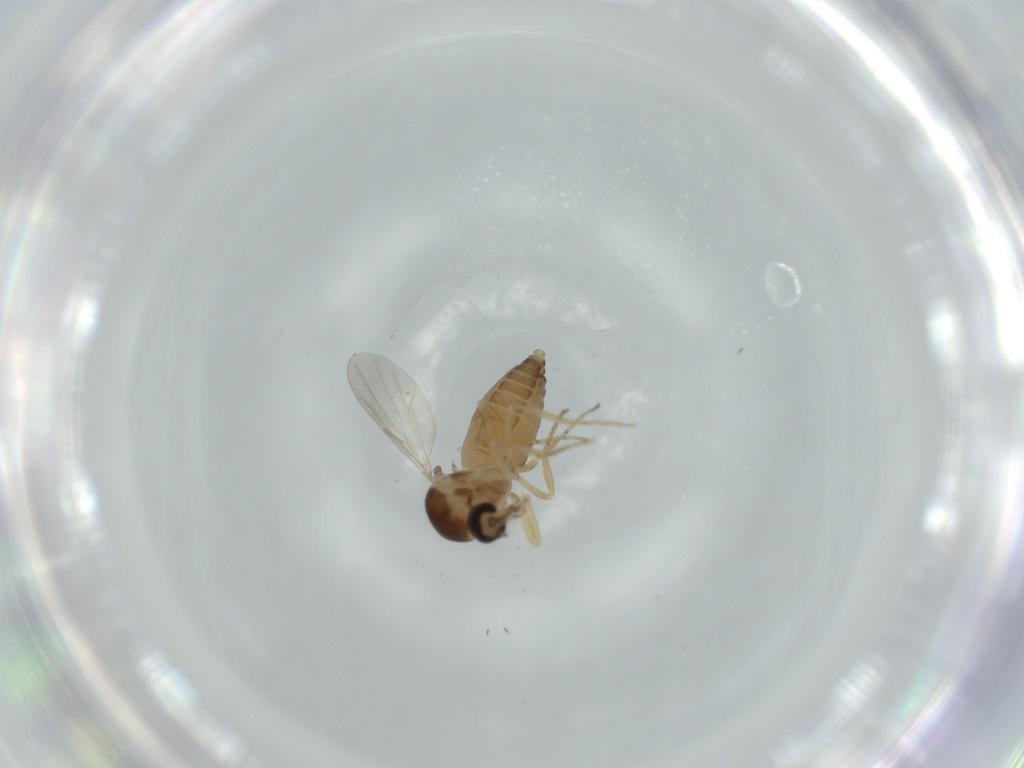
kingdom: Animalia
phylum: Arthropoda
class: Insecta
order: Diptera
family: Ceratopogonidae
